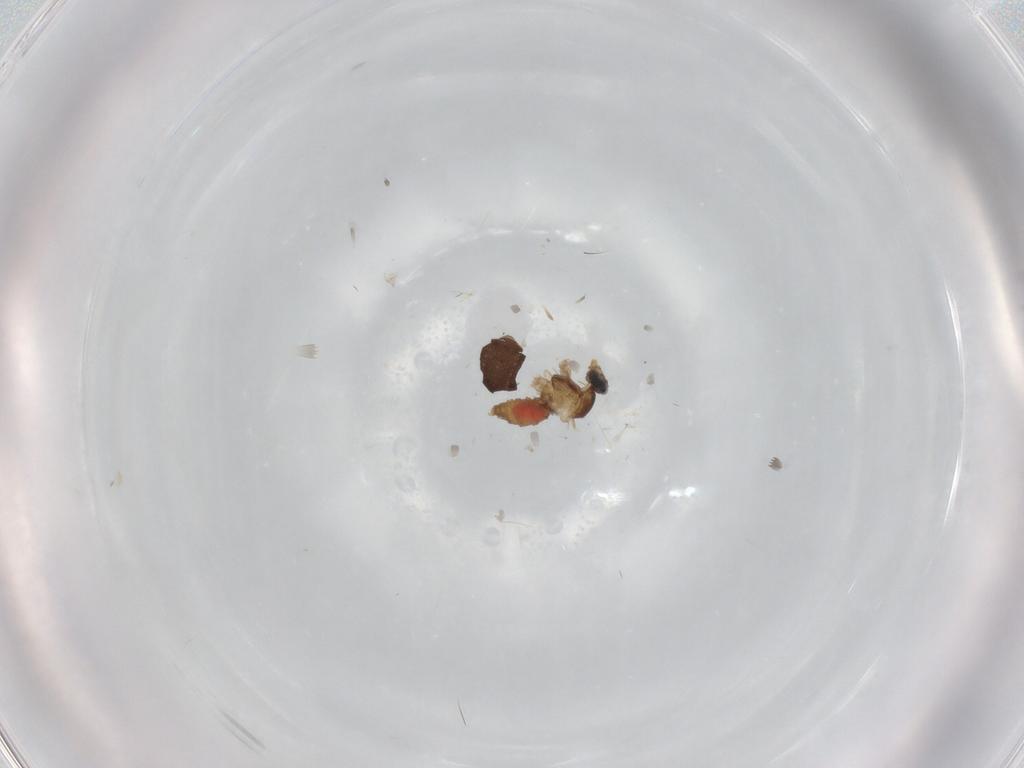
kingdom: Animalia
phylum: Arthropoda
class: Insecta
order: Diptera
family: Cecidomyiidae
